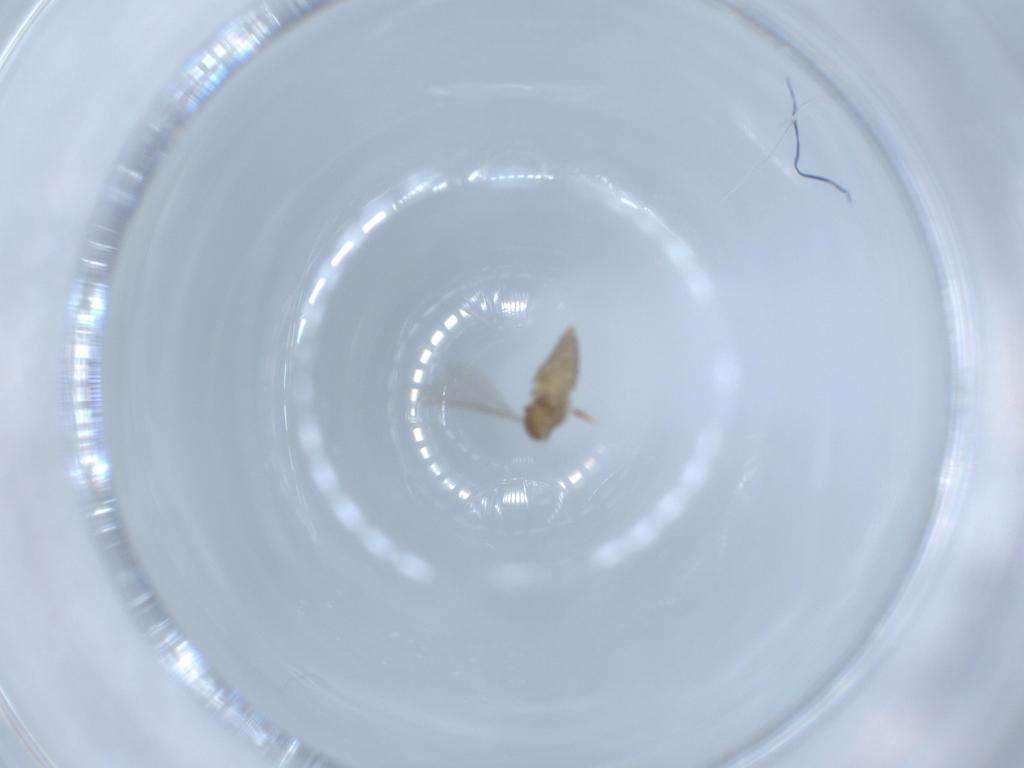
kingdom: Animalia
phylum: Arthropoda
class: Insecta
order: Diptera
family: Cecidomyiidae
